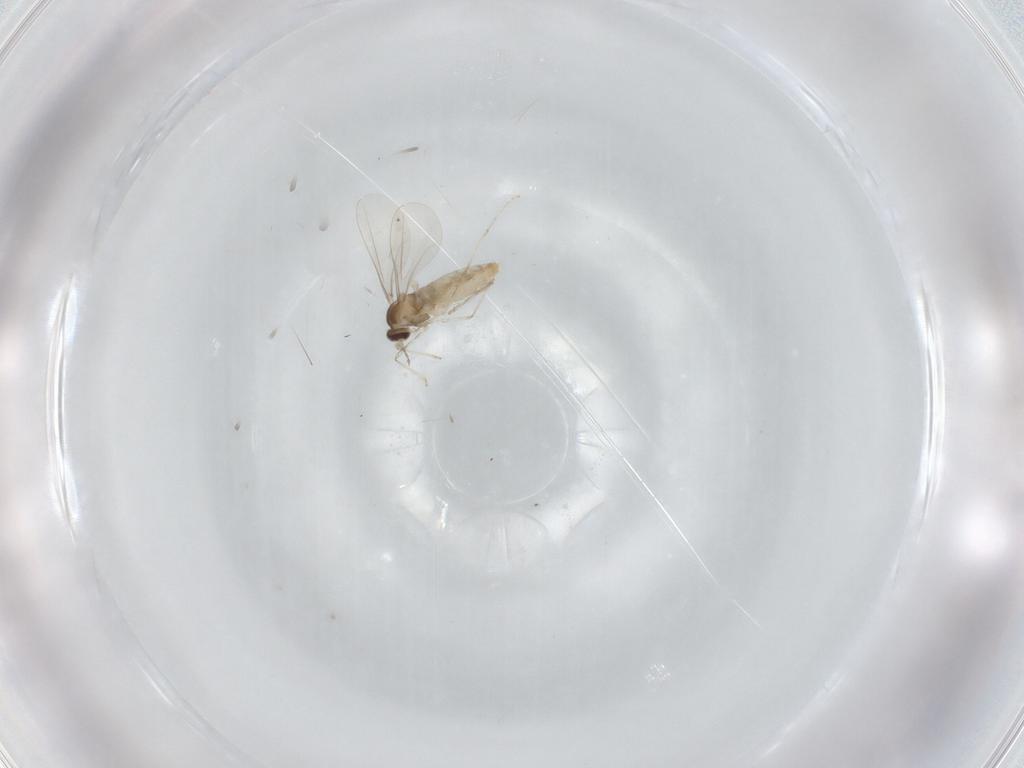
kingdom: Animalia
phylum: Arthropoda
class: Insecta
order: Diptera
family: Cecidomyiidae
